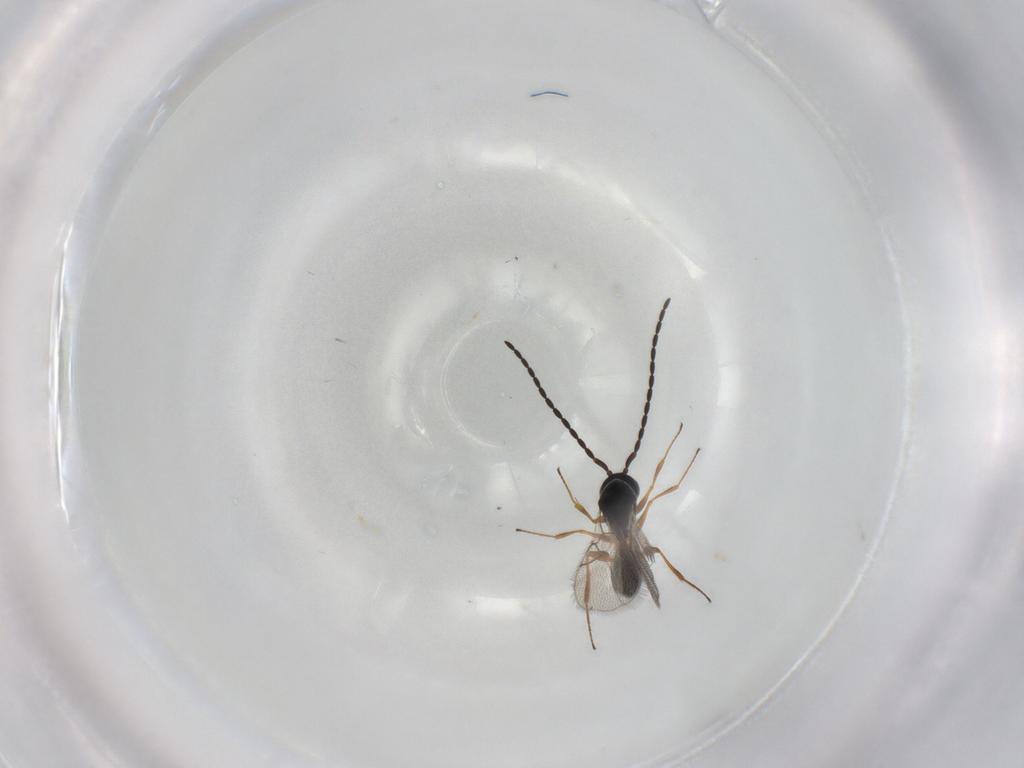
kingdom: Animalia
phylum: Arthropoda
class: Insecta
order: Hymenoptera
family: Figitidae
